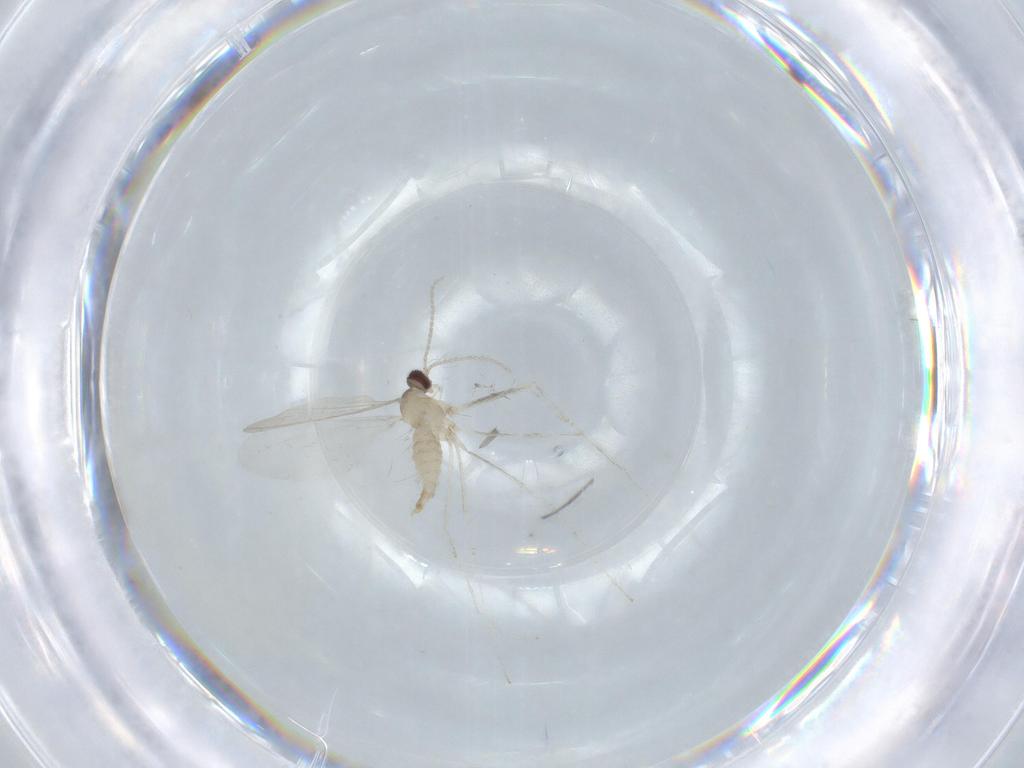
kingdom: Animalia
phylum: Arthropoda
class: Insecta
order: Diptera
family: Cecidomyiidae
